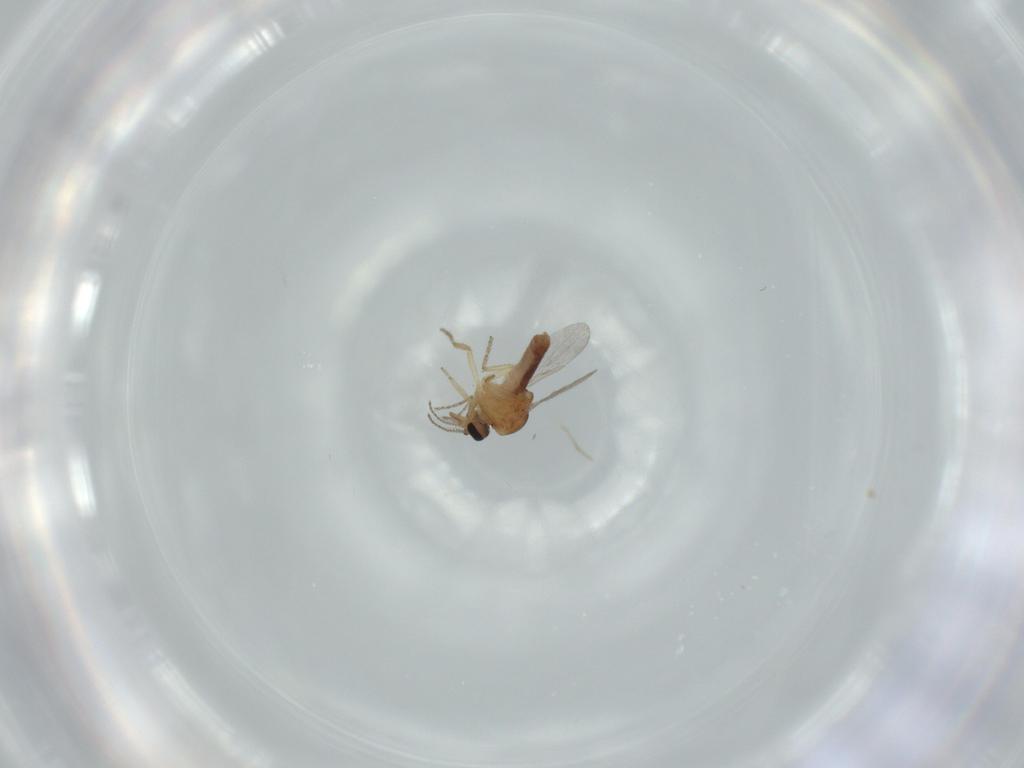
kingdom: Animalia
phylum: Arthropoda
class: Insecta
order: Diptera
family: Ceratopogonidae
